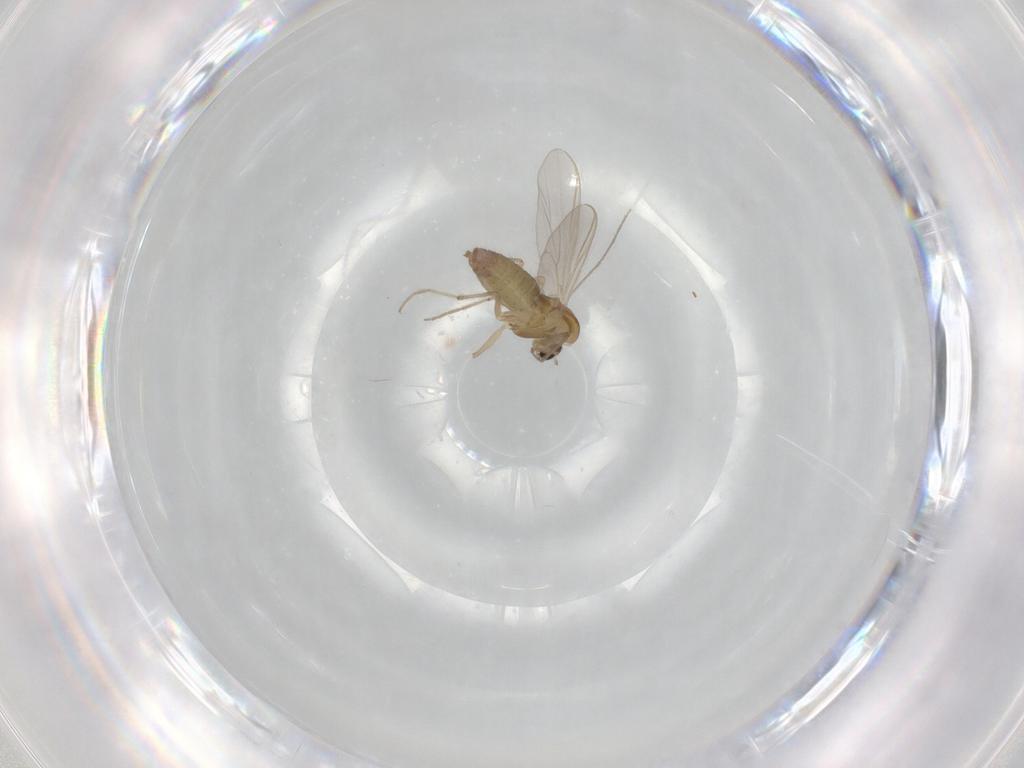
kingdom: Animalia
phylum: Arthropoda
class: Insecta
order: Diptera
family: Chironomidae
